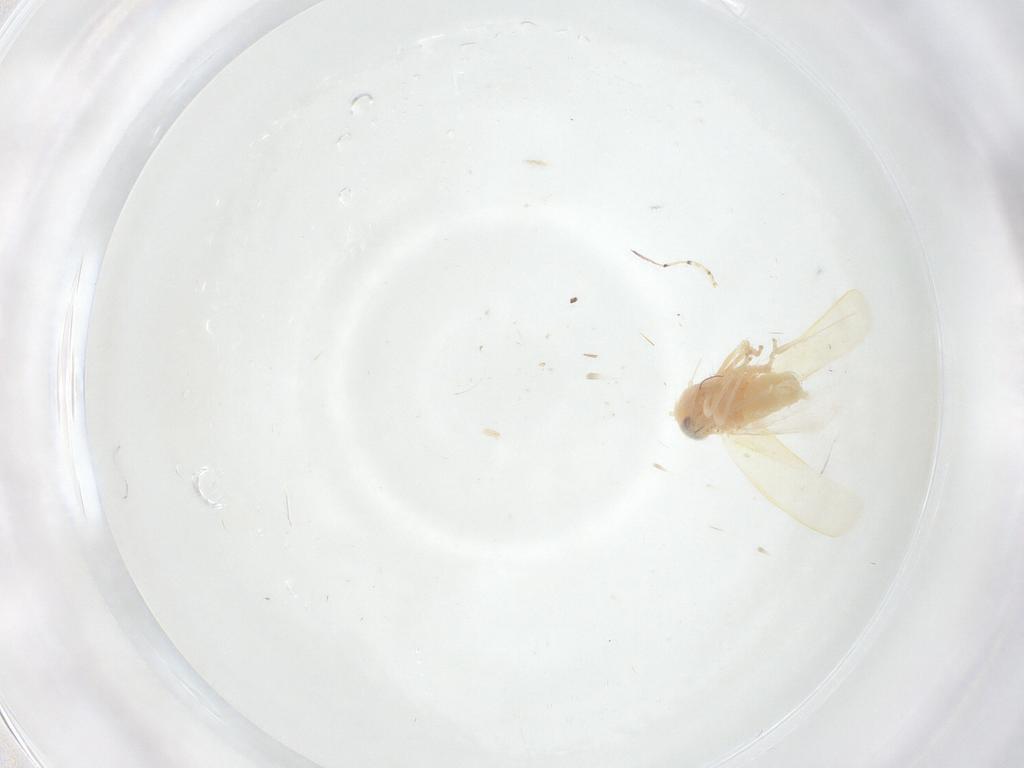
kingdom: Animalia
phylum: Arthropoda
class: Insecta
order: Hemiptera
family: Cicadellidae
